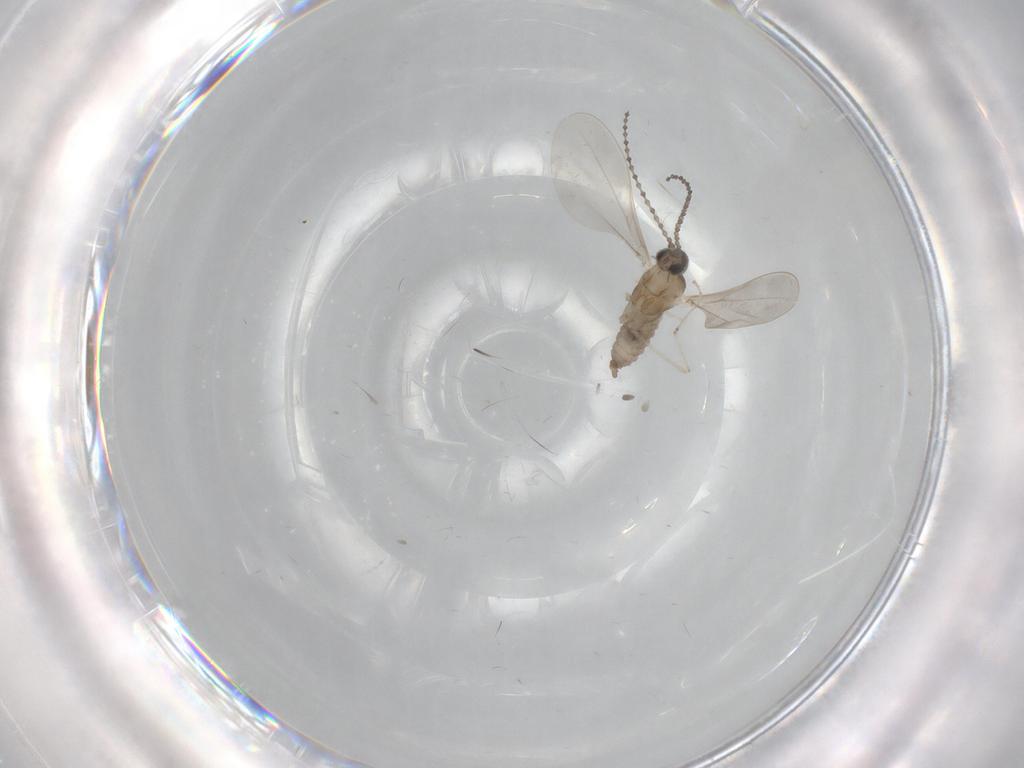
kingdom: Animalia
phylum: Arthropoda
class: Insecta
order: Diptera
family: Cecidomyiidae
